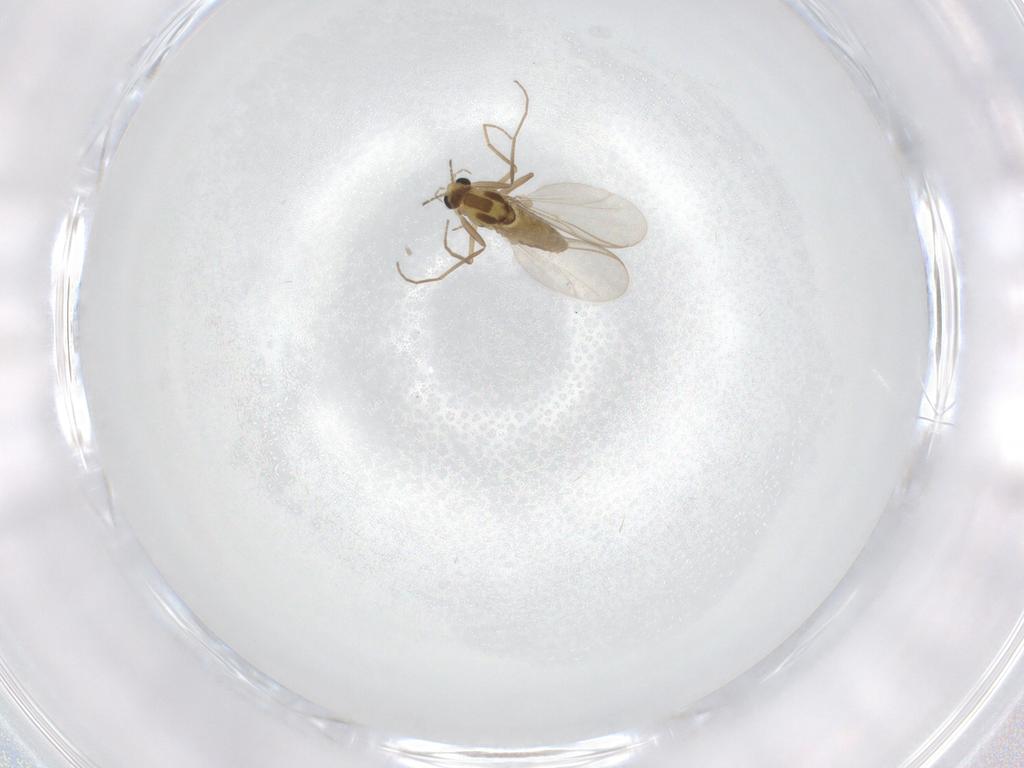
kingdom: Animalia
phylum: Arthropoda
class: Insecta
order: Diptera
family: Chironomidae
